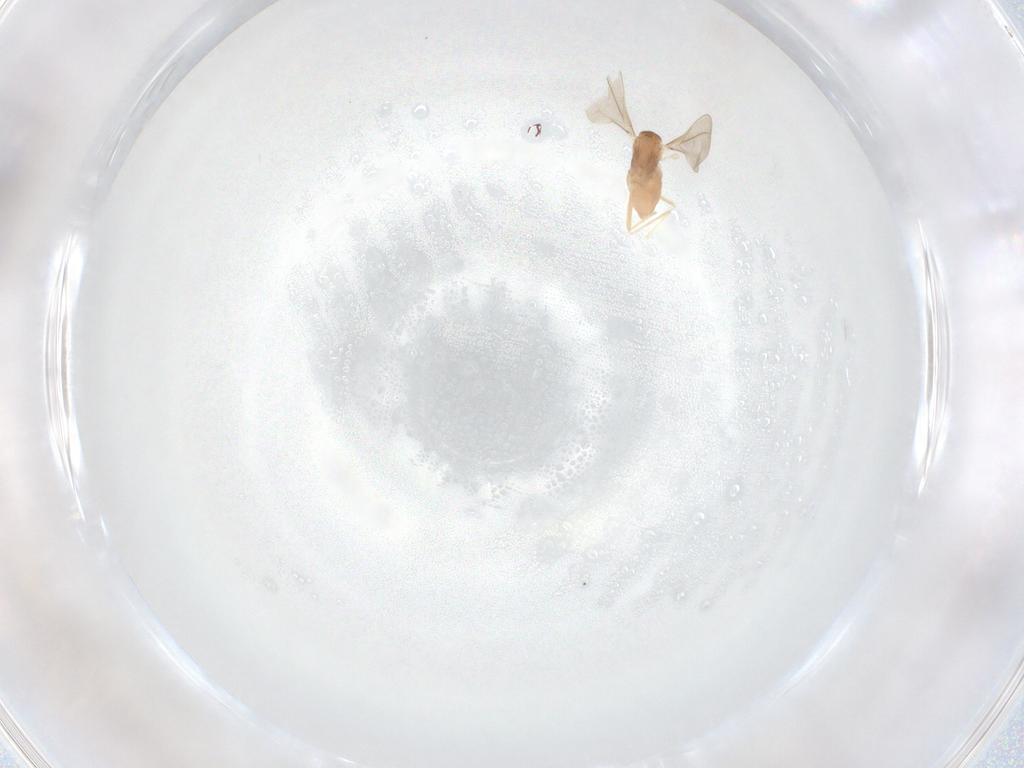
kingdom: Animalia
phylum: Arthropoda
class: Insecta
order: Diptera
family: Cecidomyiidae
